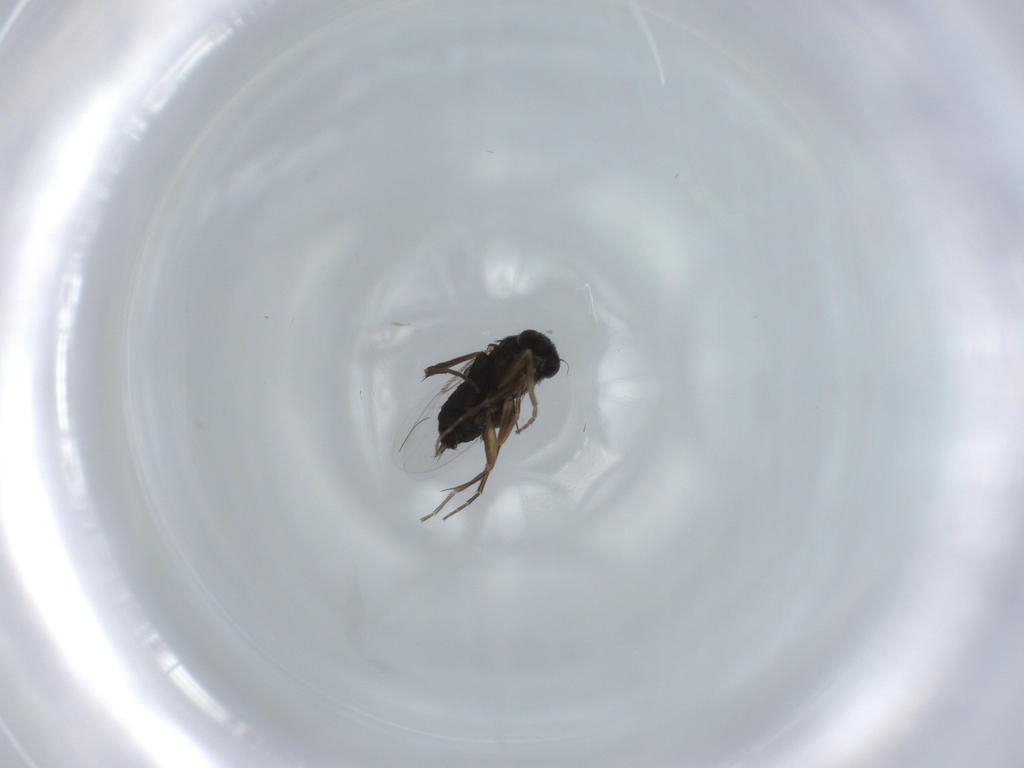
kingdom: Animalia
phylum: Arthropoda
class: Insecta
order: Diptera
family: Phoridae
